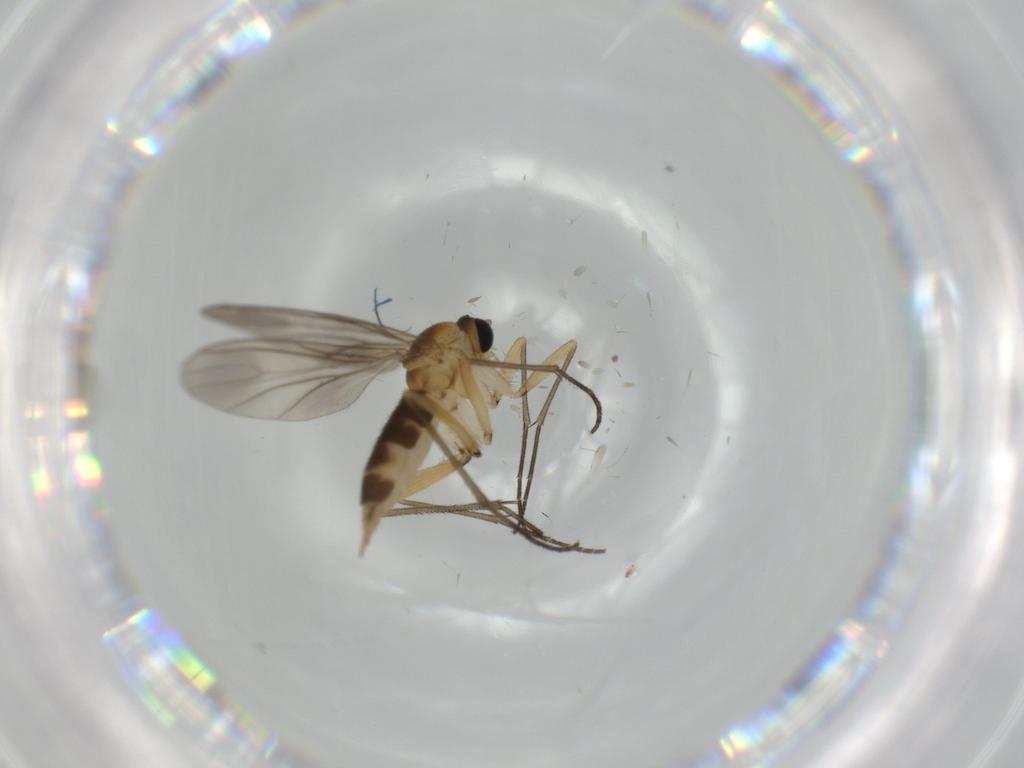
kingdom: Animalia
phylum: Arthropoda
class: Insecta
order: Diptera
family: Sciaridae
